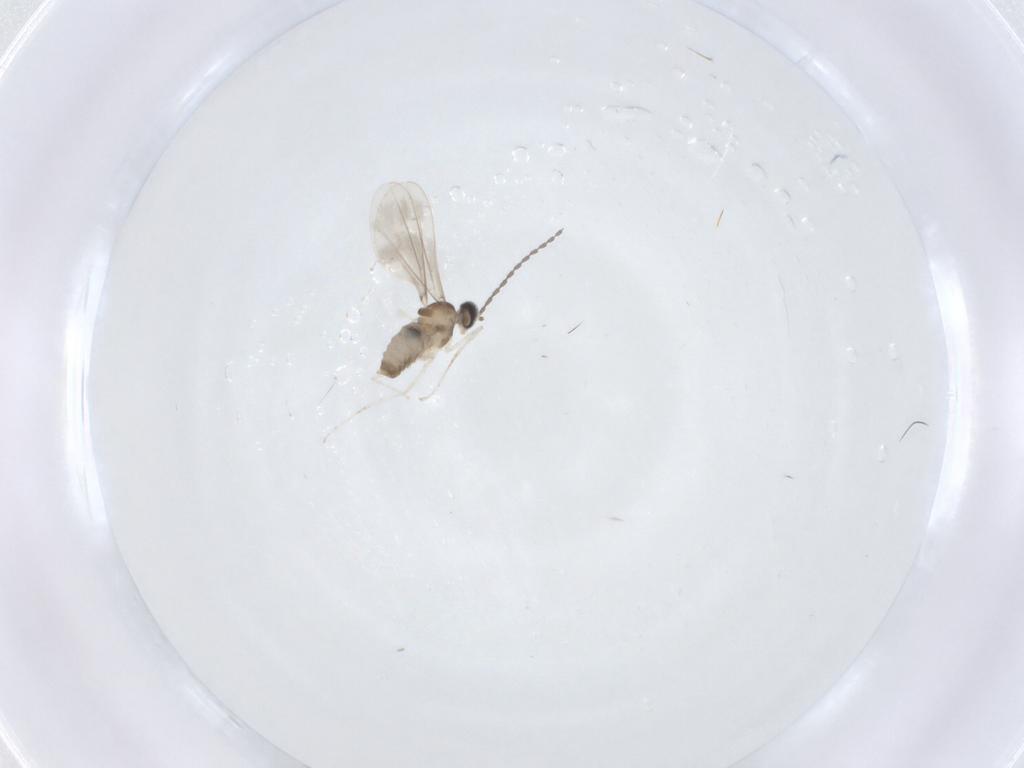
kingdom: Animalia
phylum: Arthropoda
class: Insecta
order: Diptera
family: Cecidomyiidae
